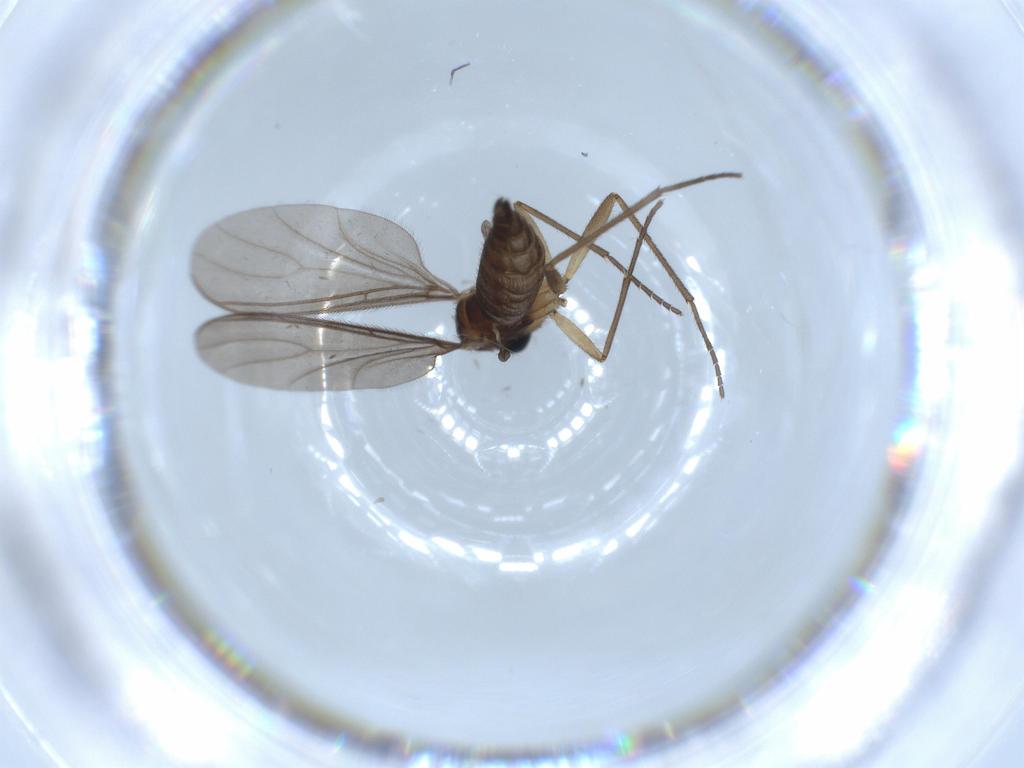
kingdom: Animalia
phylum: Arthropoda
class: Insecta
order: Diptera
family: Sciaridae
